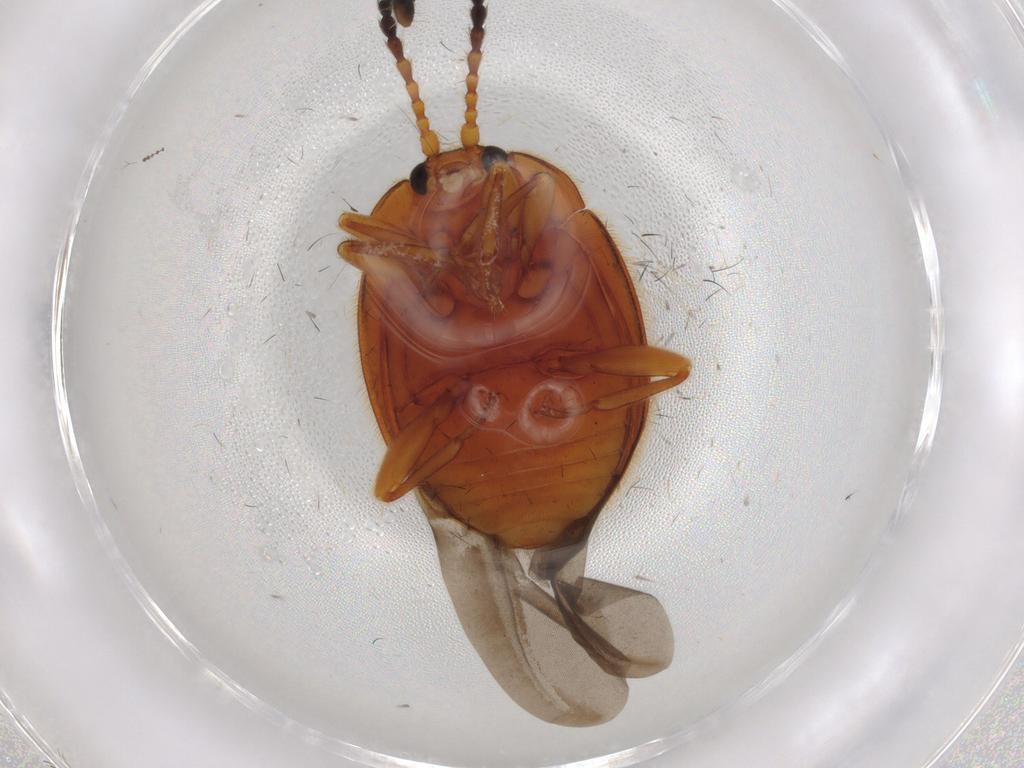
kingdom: Animalia
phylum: Arthropoda
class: Insecta
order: Coleoptera
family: Endomychidae
